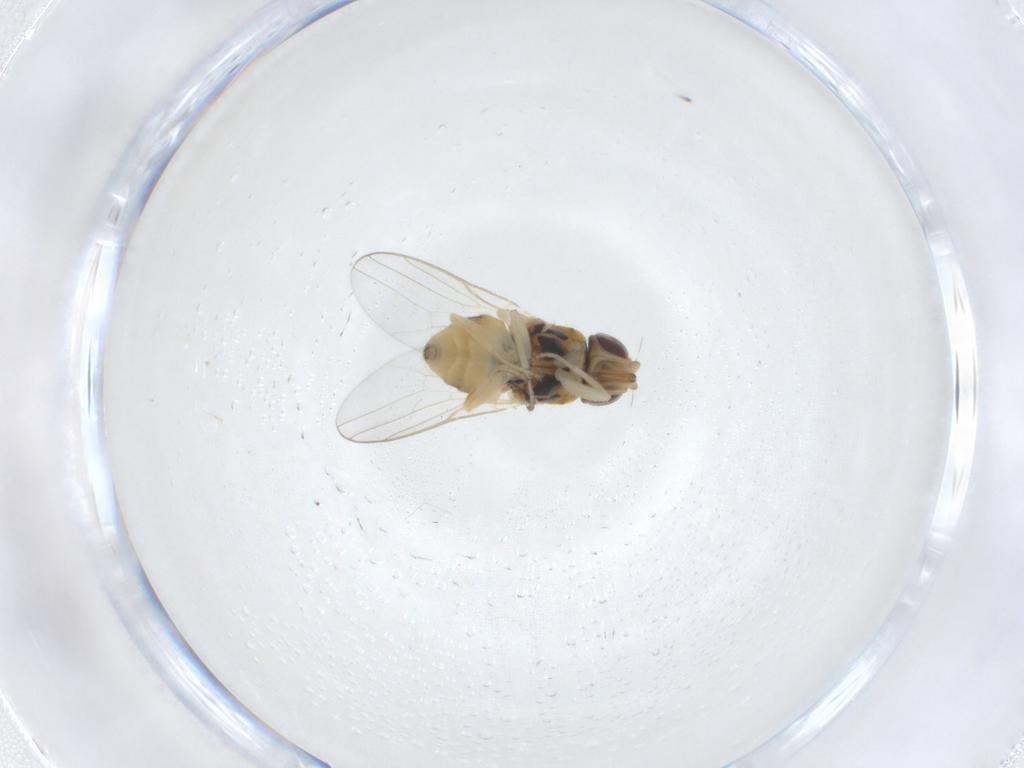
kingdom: Animalia
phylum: Arthropoda
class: Insecta
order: Diptera
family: Chloropidae
